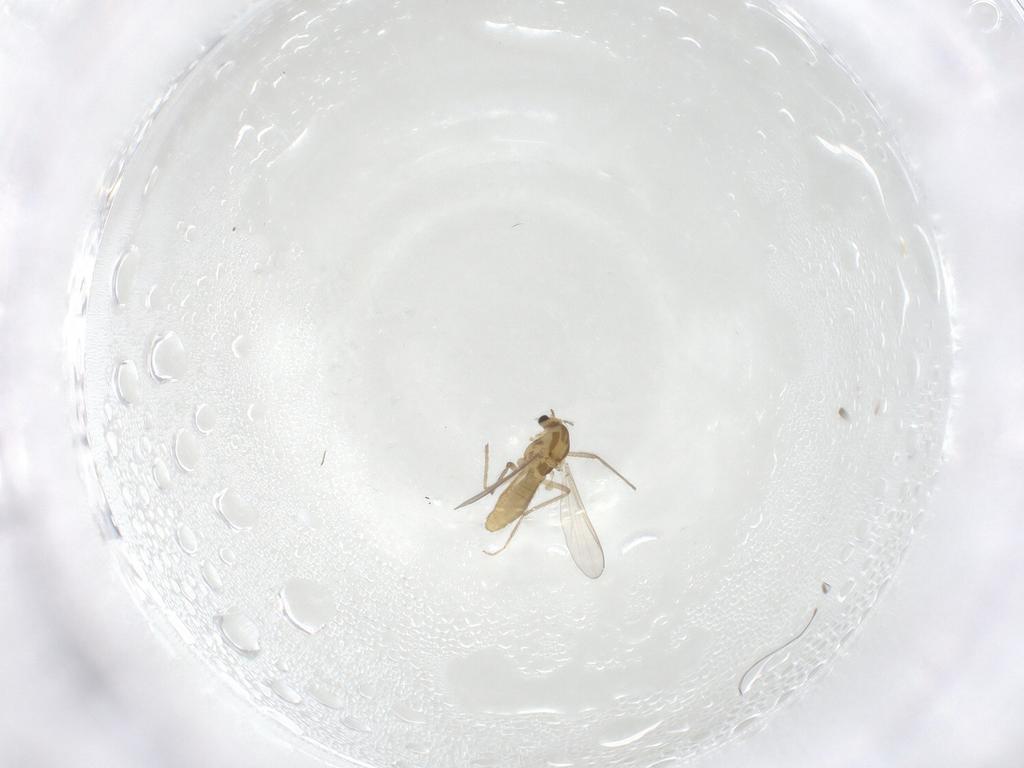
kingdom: Animalia
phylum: Arthropoda
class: Insecta
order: Diptera
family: Chironomidae
